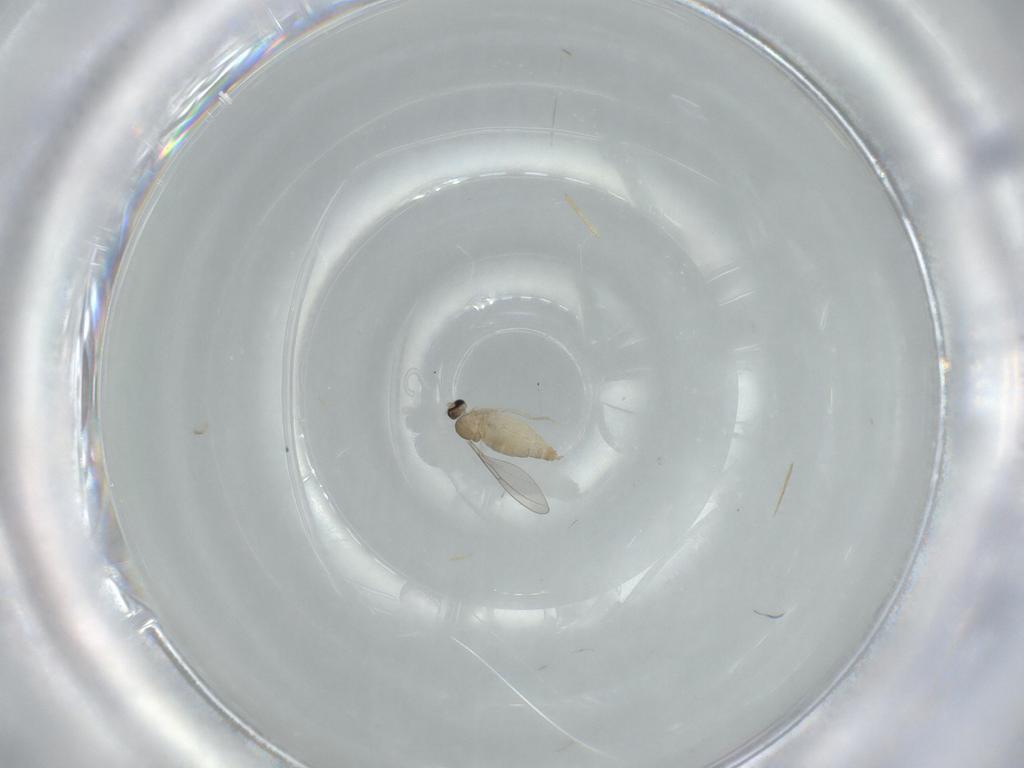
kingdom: Animalia
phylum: Arthropoda
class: Insecta
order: Diptera
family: Cecidomyiidae
